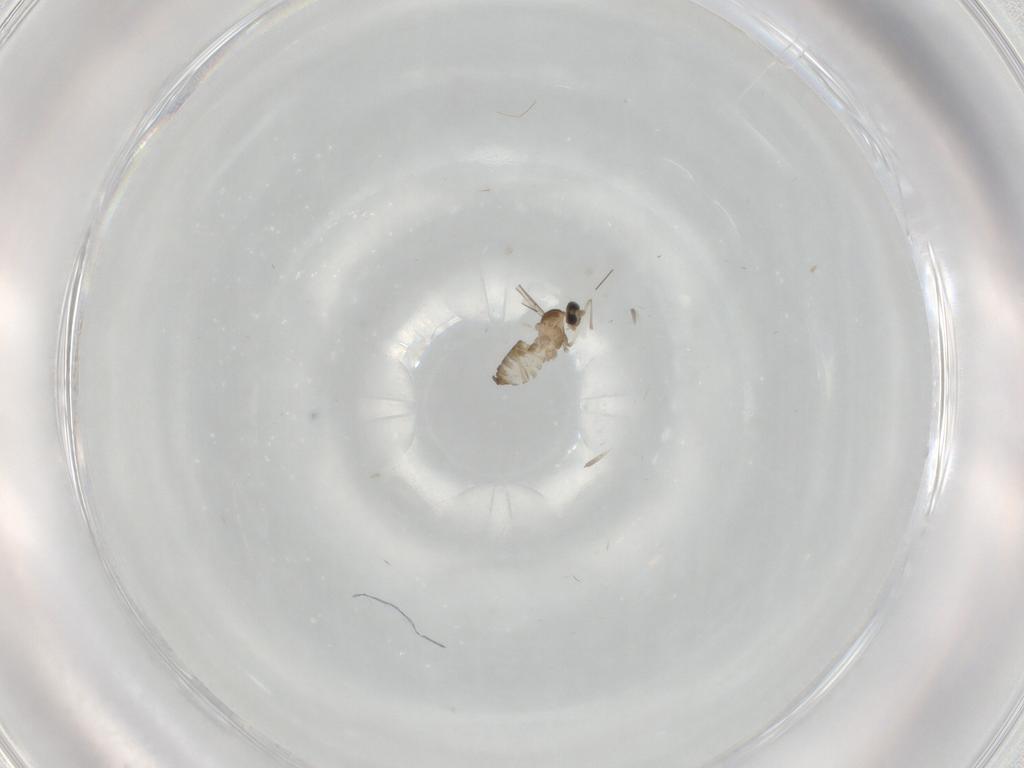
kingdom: Animalia
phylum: Arthropoda
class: Insecta
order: Diptera
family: Cecidomyiidae
